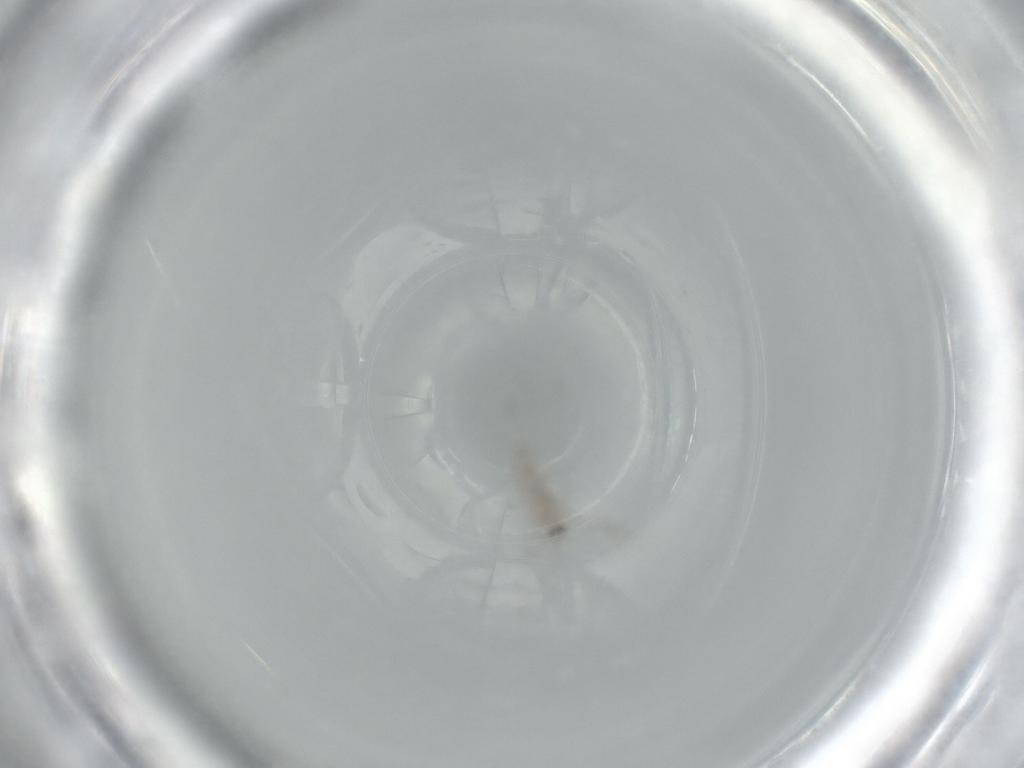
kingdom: Animalia
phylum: Arthropoda
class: Insecta
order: Diptera
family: Cecidomyiidae
